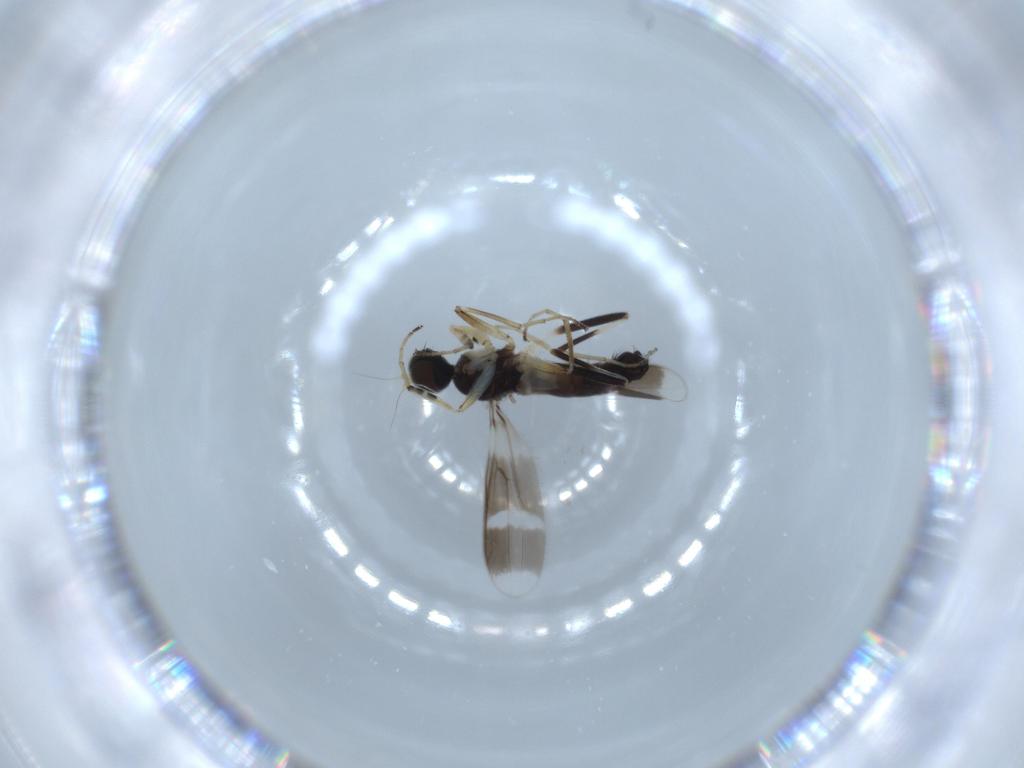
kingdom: Animalia
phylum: Arthropoda
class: Insecta
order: Diptera
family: Hybotidae
